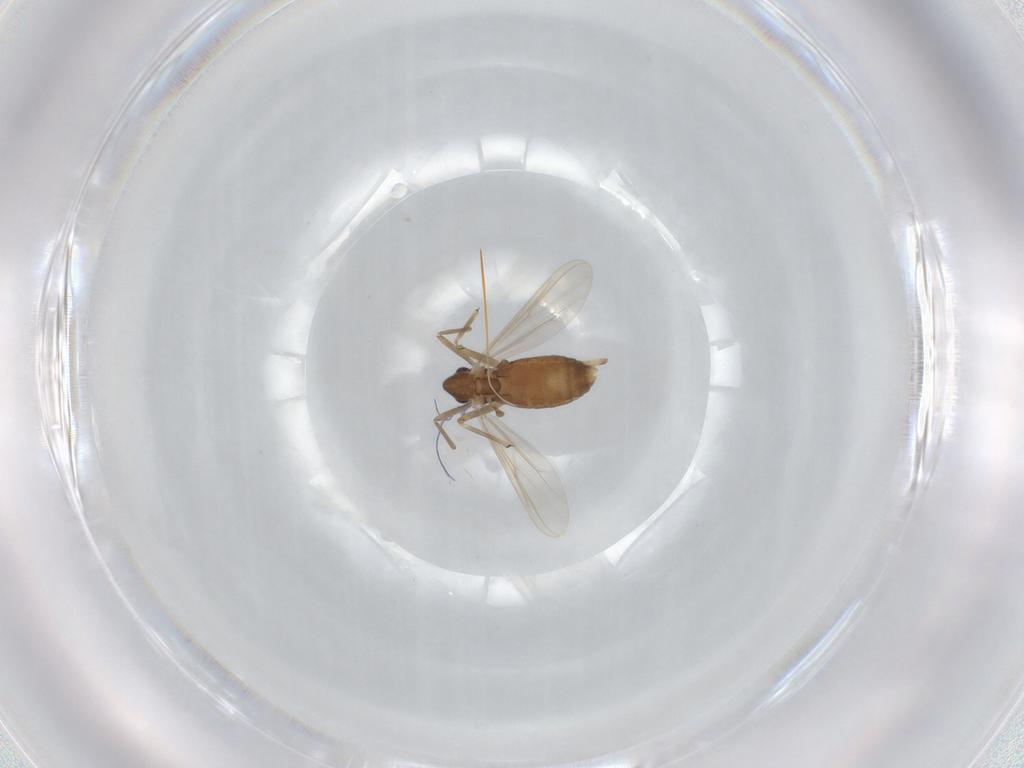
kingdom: Animalia
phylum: Arthropoda
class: Insecta
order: Diptera
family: Chironomidae
